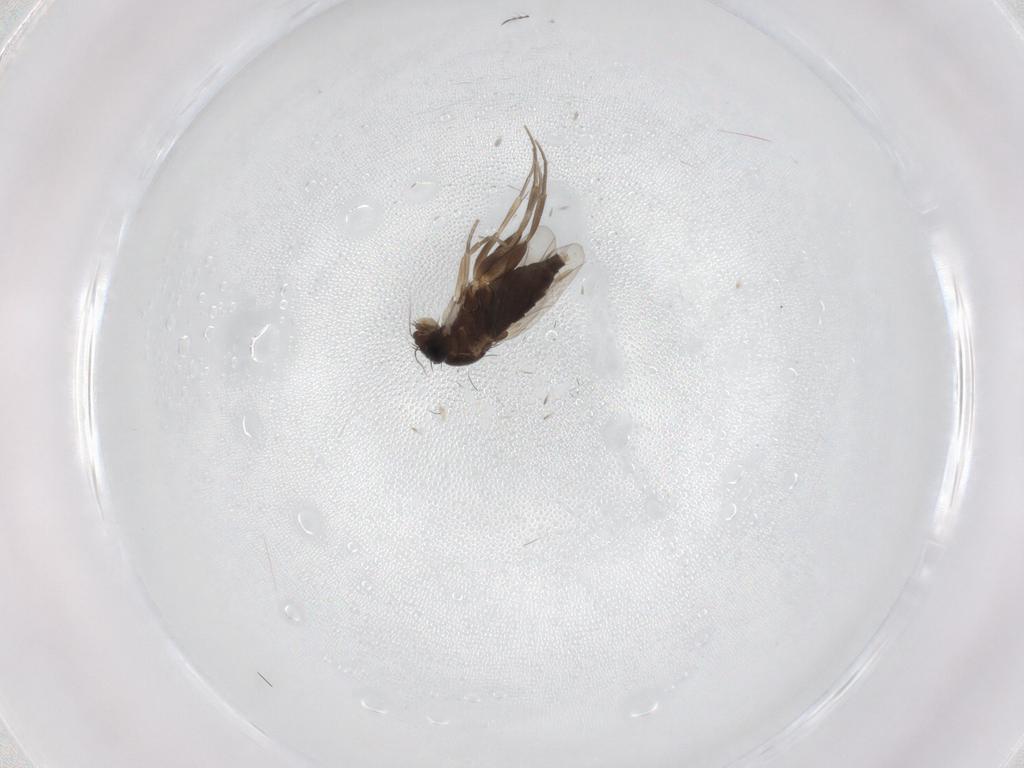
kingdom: Animalia
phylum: Arthropoda
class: Insecta
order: Diptera
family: Phoridae
